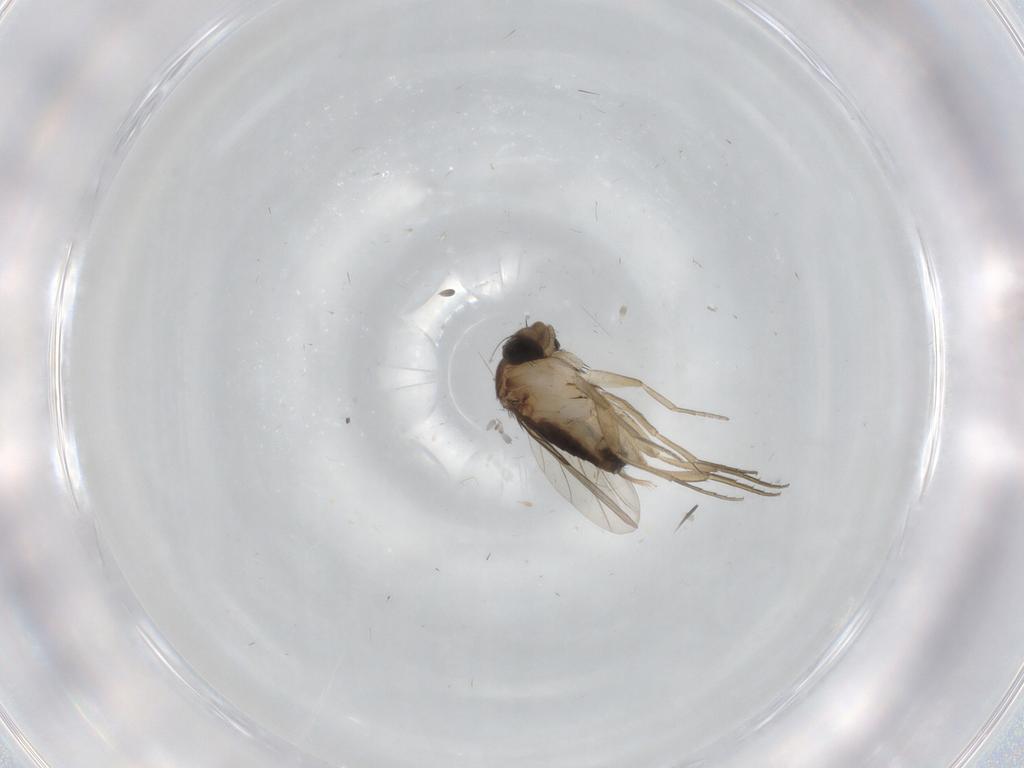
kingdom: Animalia
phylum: Arthropoda
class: Insecta
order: Diptera
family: Phoridae
